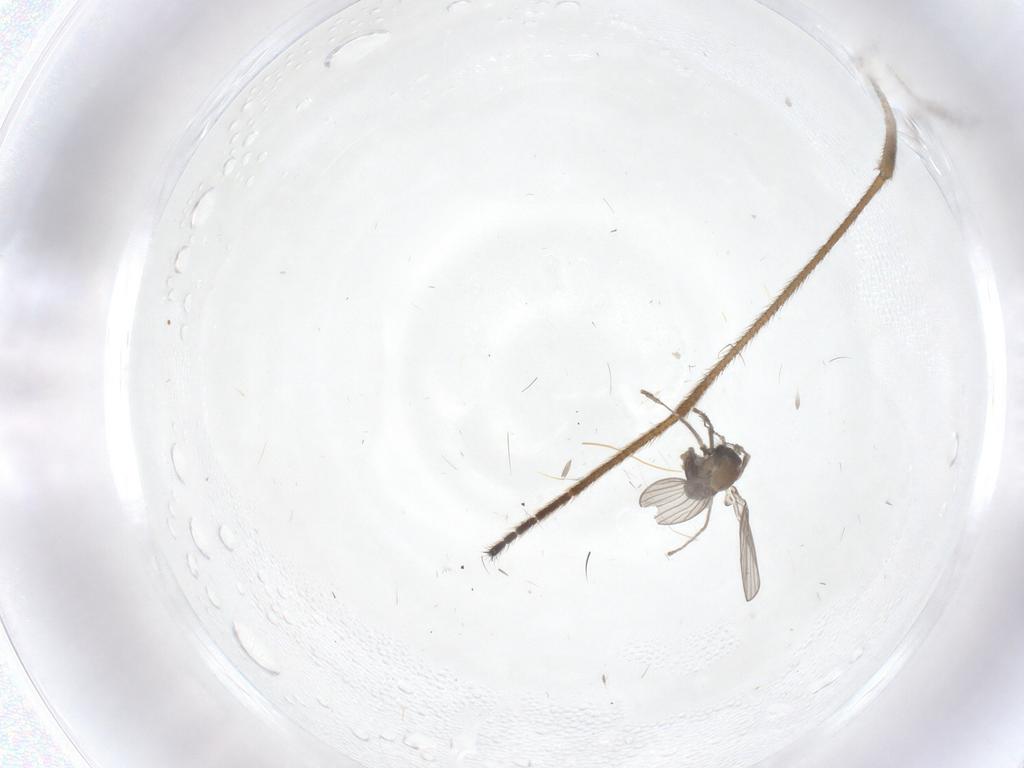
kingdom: Animalia
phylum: Arthropoda
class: Insecta
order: Diptera
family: Limoniidae
